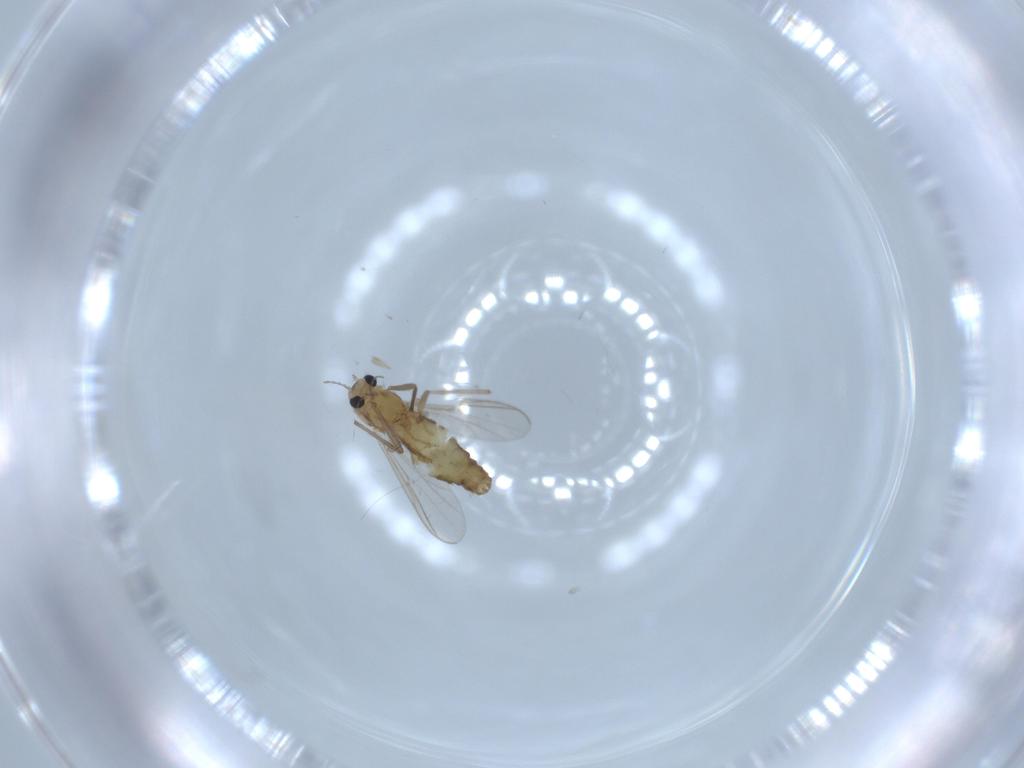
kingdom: Animalia
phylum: Arthropoda
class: Insecta
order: Diptera
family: Chironomidae
